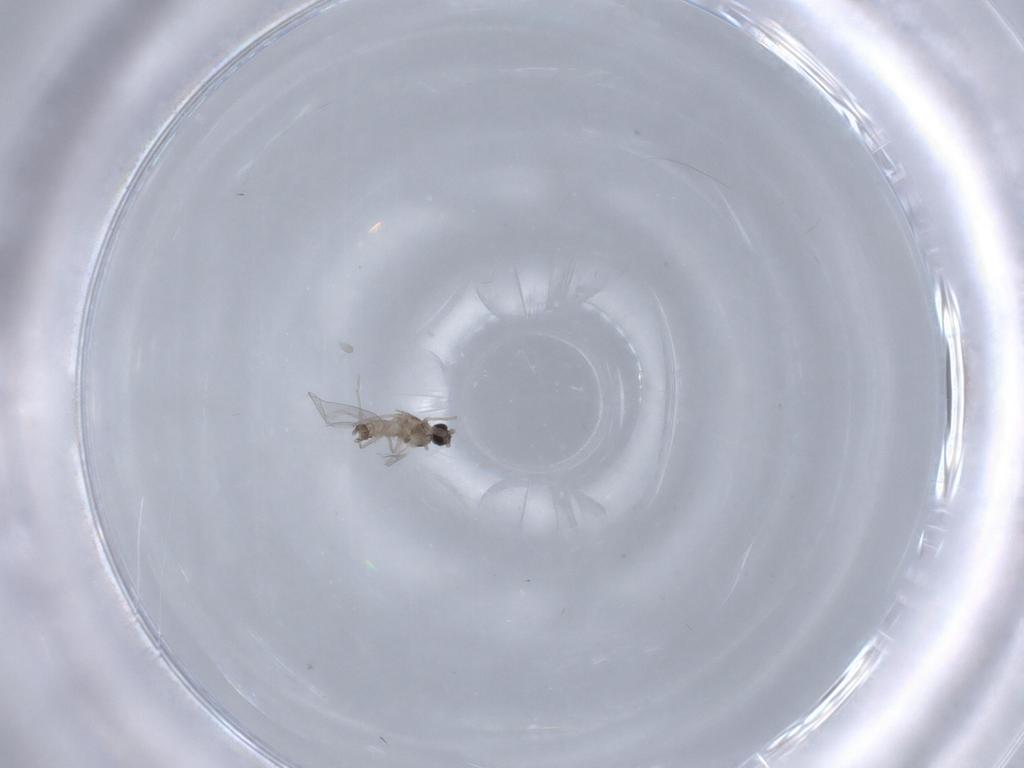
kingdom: Animalia
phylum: Arthropoda
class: Insecta
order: Diptera
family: Cecidomyiidae
